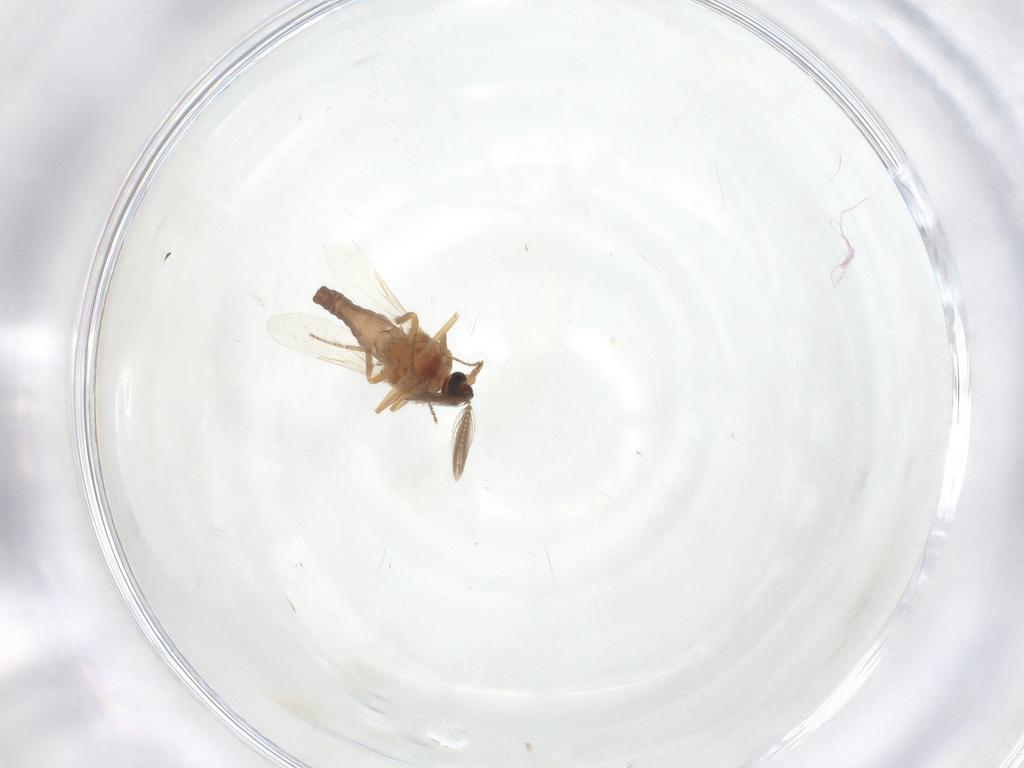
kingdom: Animalia
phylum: Arthropoda
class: Insecta
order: Diptera
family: Ceratopogonidae
